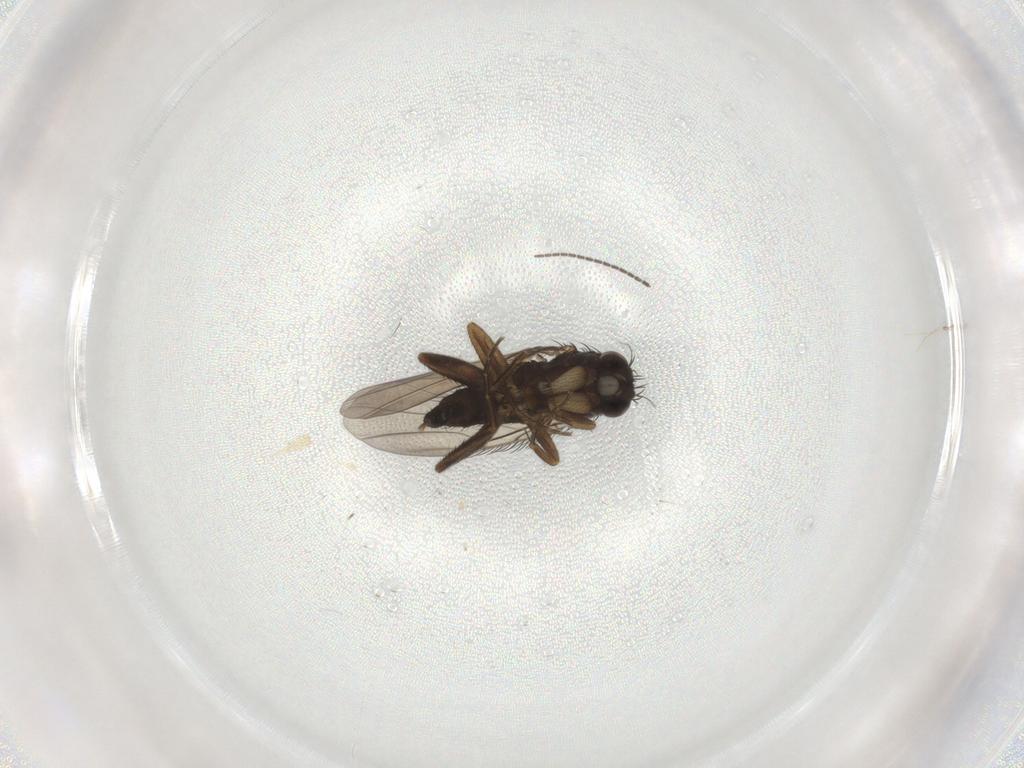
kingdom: Animalia
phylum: Arthropoda
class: Insecta
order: Diptera
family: Phoridae
